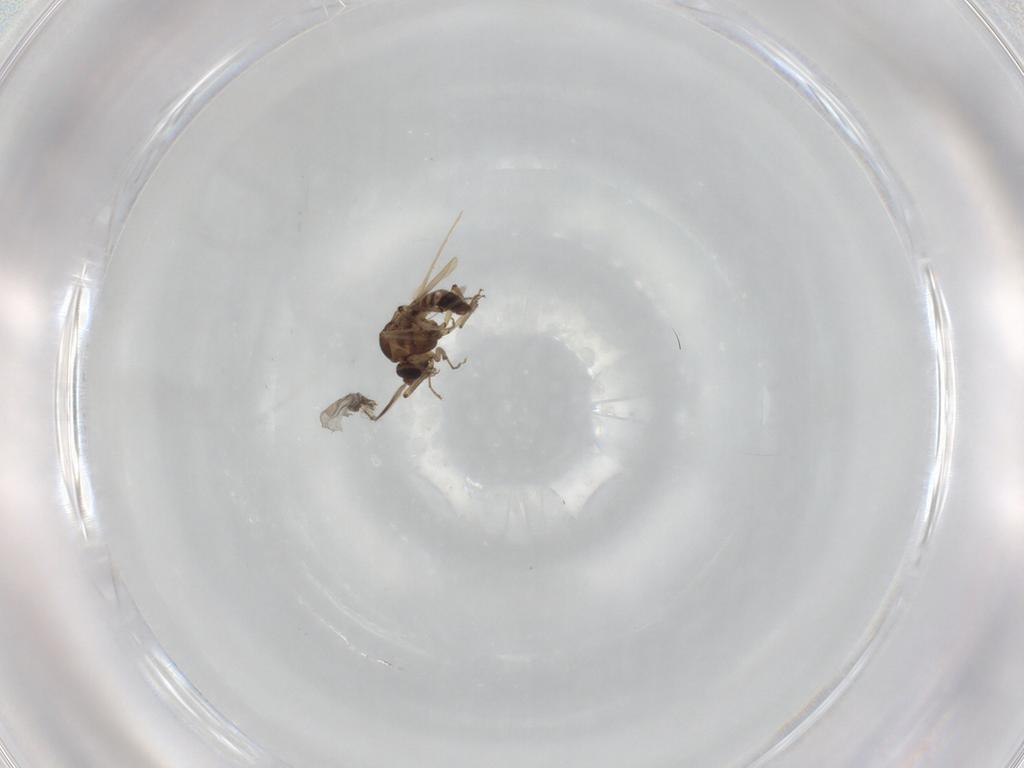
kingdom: Animalia
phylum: Arthropoda
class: Insecta
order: Diptera
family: Ceratopogonidae
